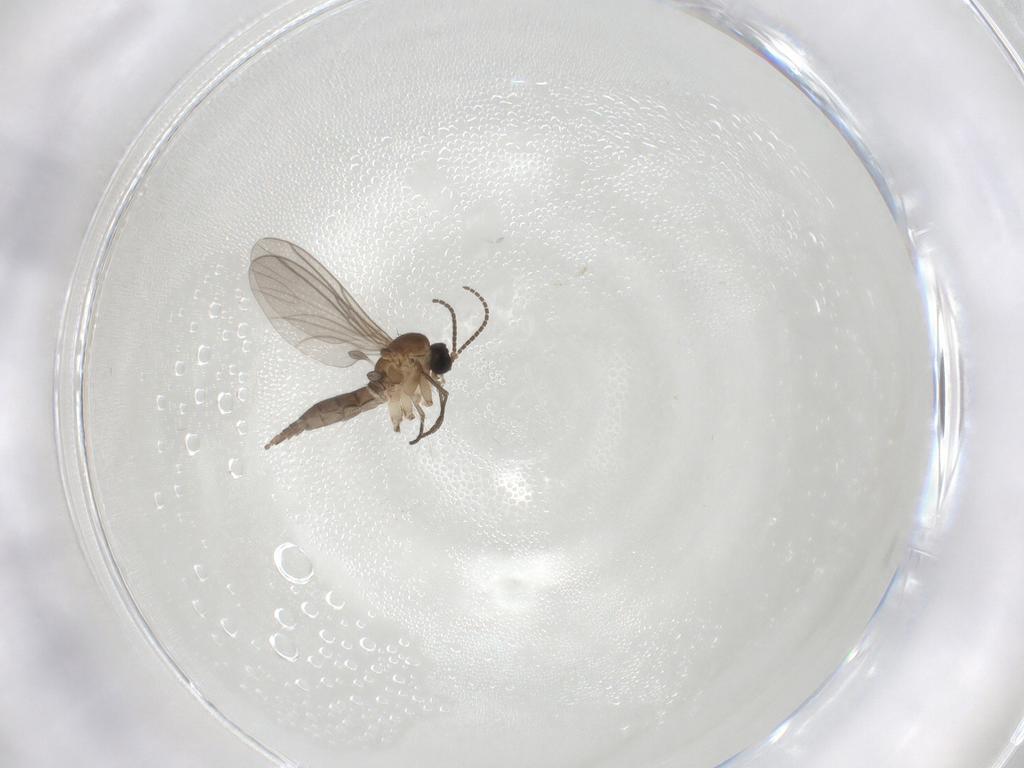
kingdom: Animalia
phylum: Arthropoda
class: Insecta
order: Diptera
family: Sciaridae
